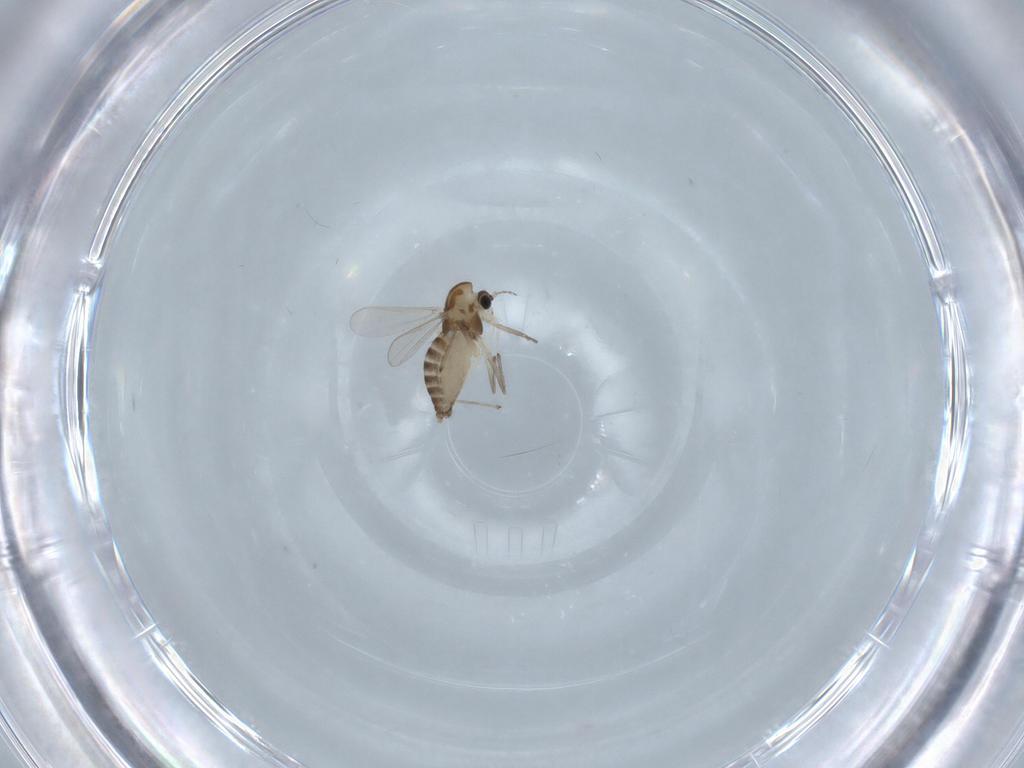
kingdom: Animalia
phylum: Arthropoda
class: Insecta
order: Diptera
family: Chironomidae
